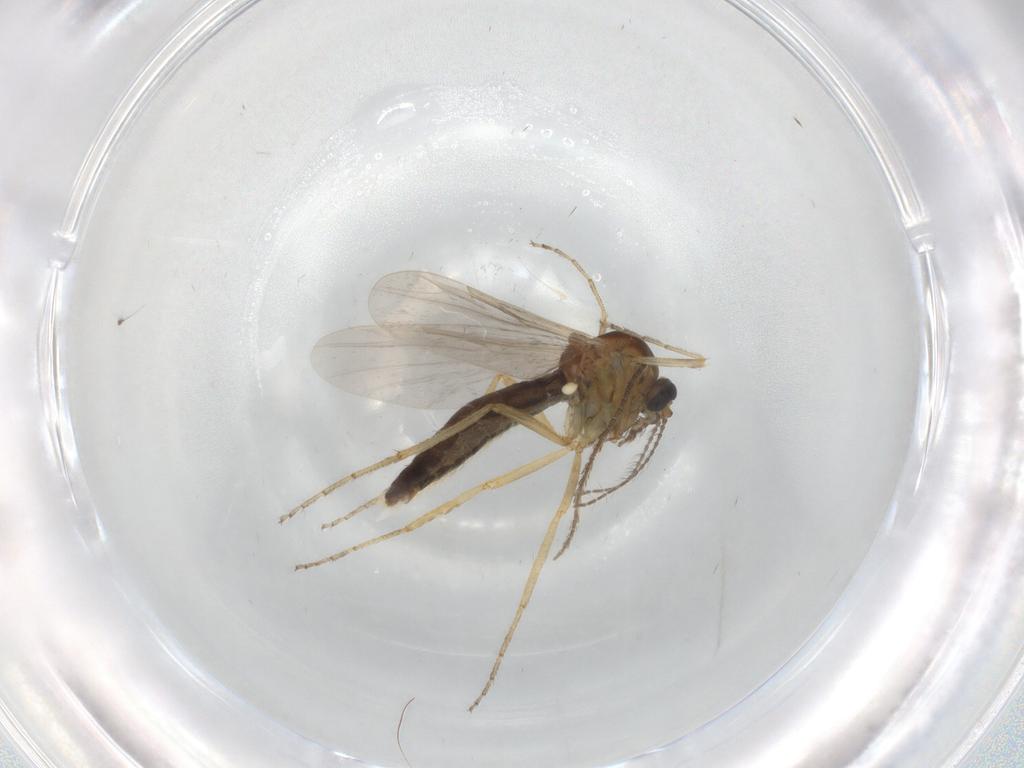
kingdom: Animalia
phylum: Arthropoda
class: Insecta
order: Diptera
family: Ceratopogonidae
